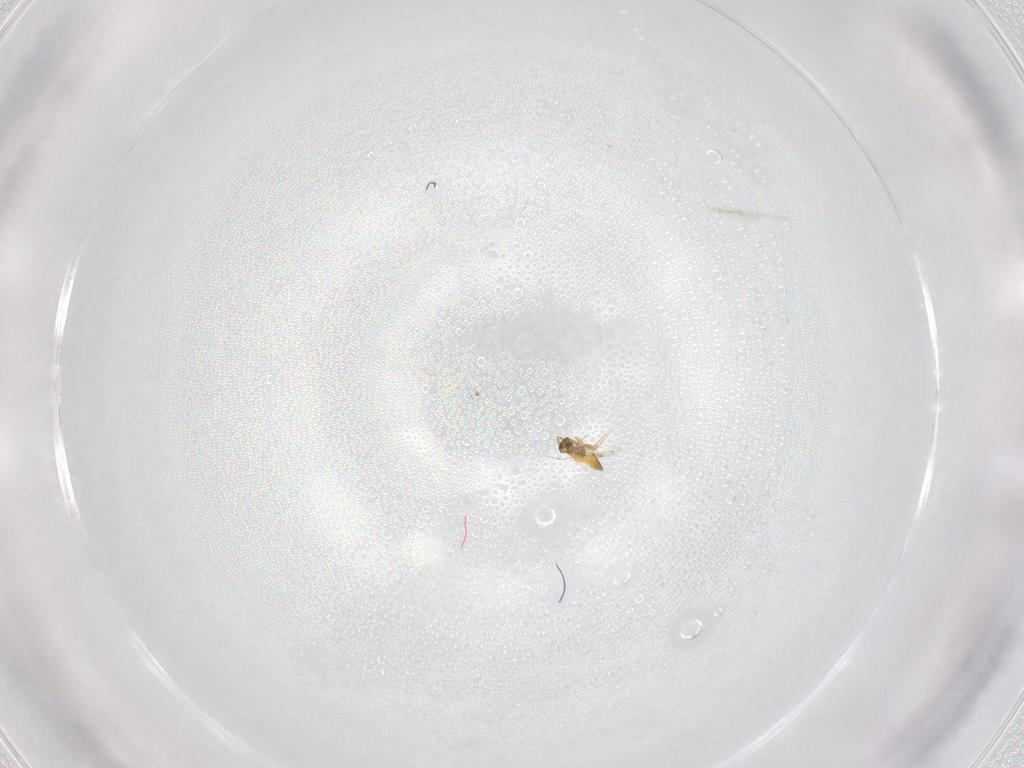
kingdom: Animalia
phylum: Arthropoda
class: Insecta
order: Hymenoptera
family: Trichogrammatidae
